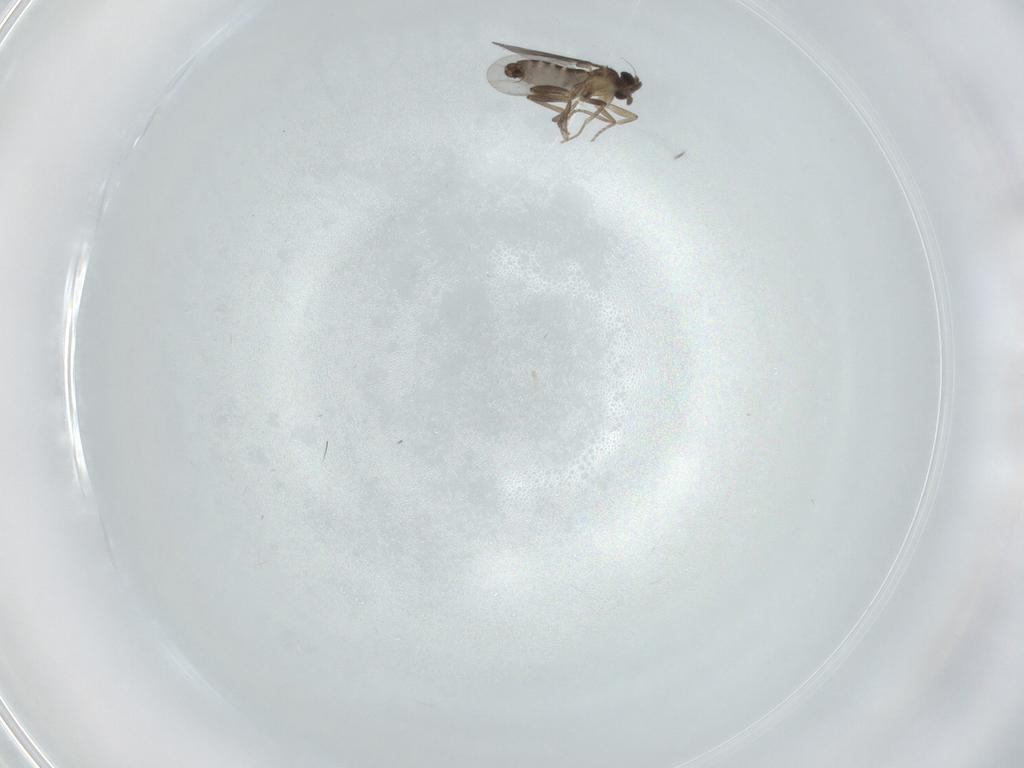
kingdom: Animalia
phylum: Arthropoda
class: Insecta
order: Diptera
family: Cecidomyiidae
